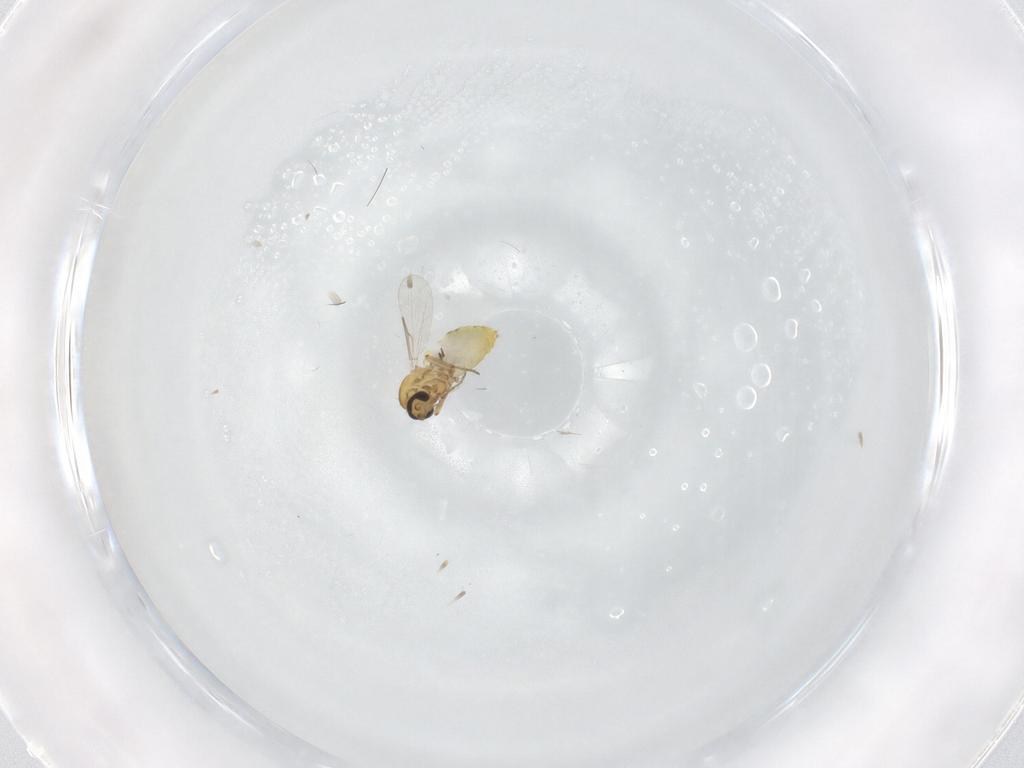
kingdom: Animalia
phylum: Arthropoda
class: Insecta
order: Diptera
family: Ceratopogonidae
